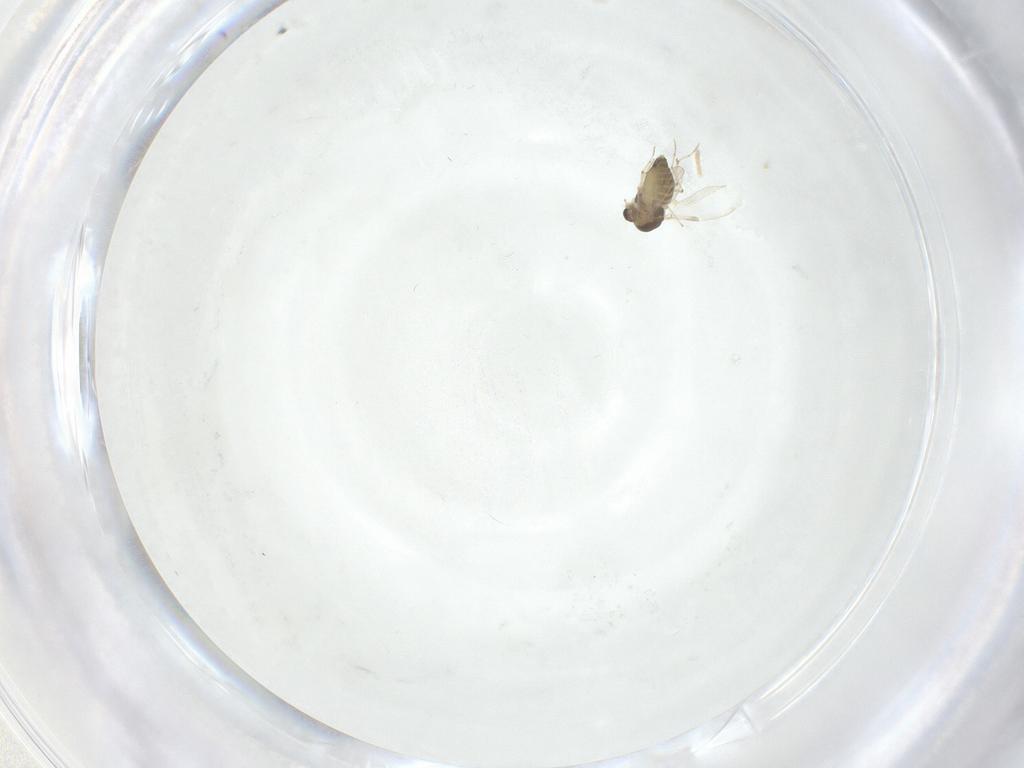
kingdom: Animalia
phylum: Arthropoda
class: Insecta
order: Diptera
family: Chironomidae
